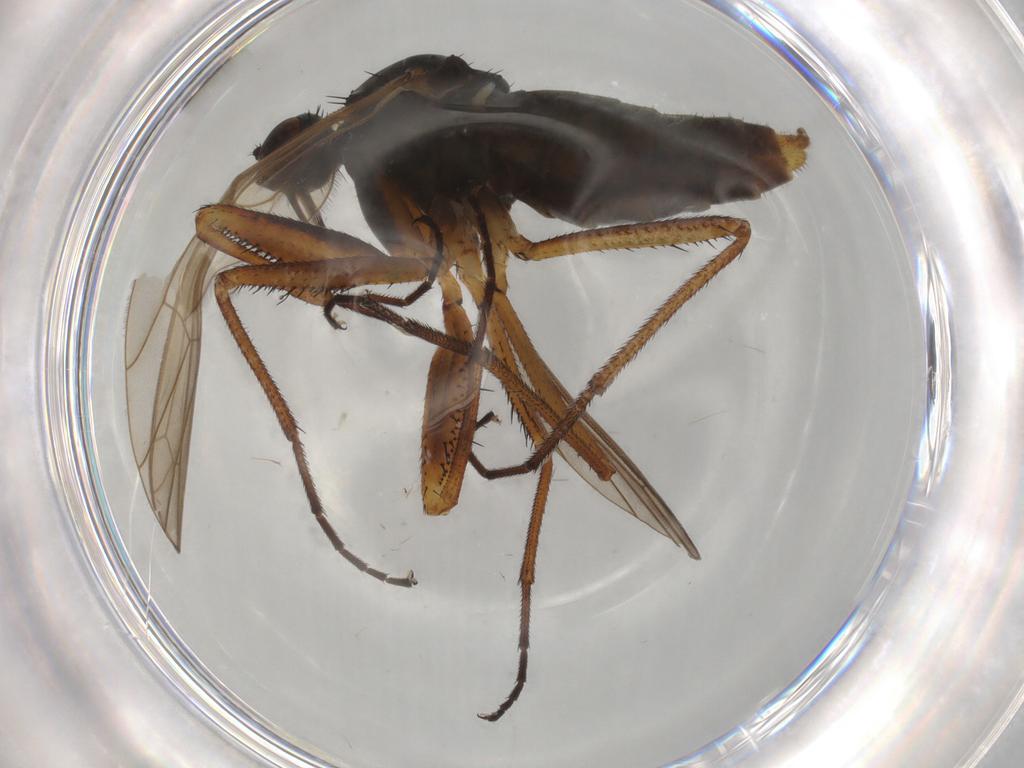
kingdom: Animalia
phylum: Arthropoda
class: Insecta
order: Diptera
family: Empididae
